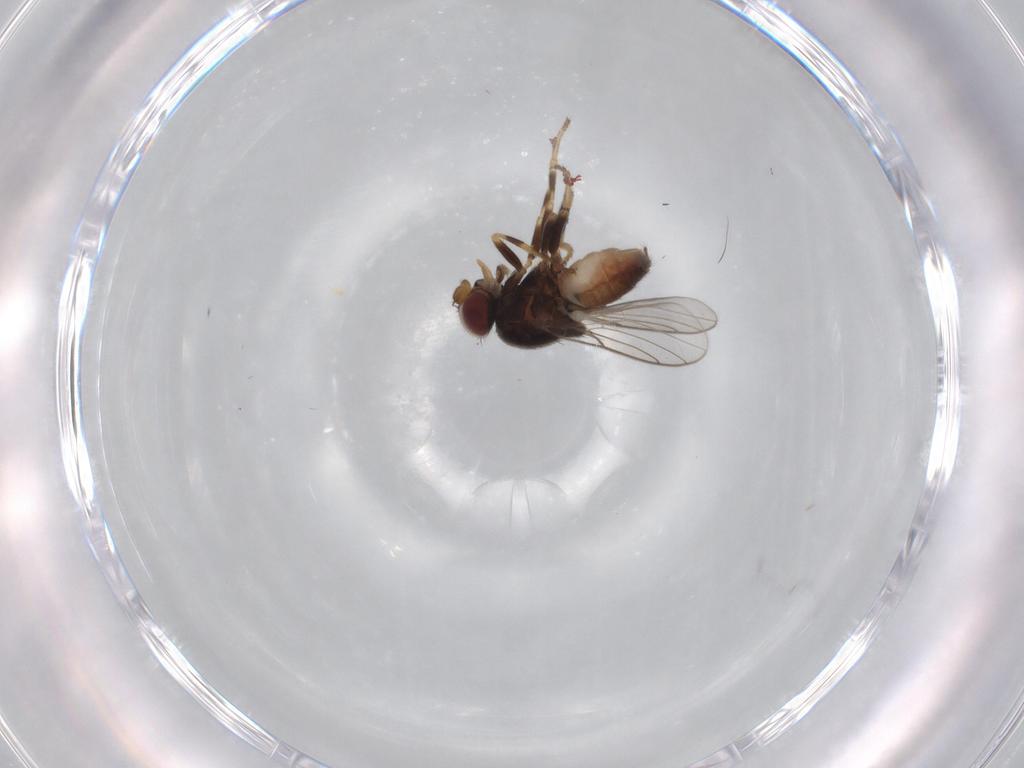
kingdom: Animalia
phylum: Arthropoda
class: Insecta
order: Diptera
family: Chloropidae
